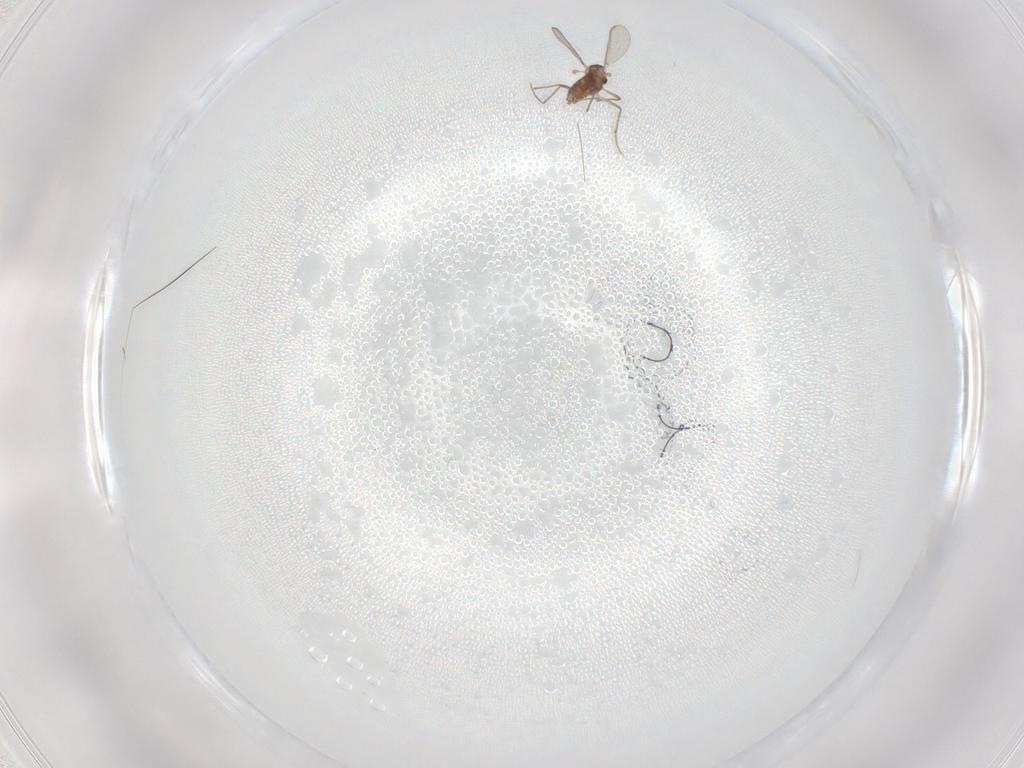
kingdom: Animalia
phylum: Arthropoda
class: Insecta
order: Diptera
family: Chironomidae
